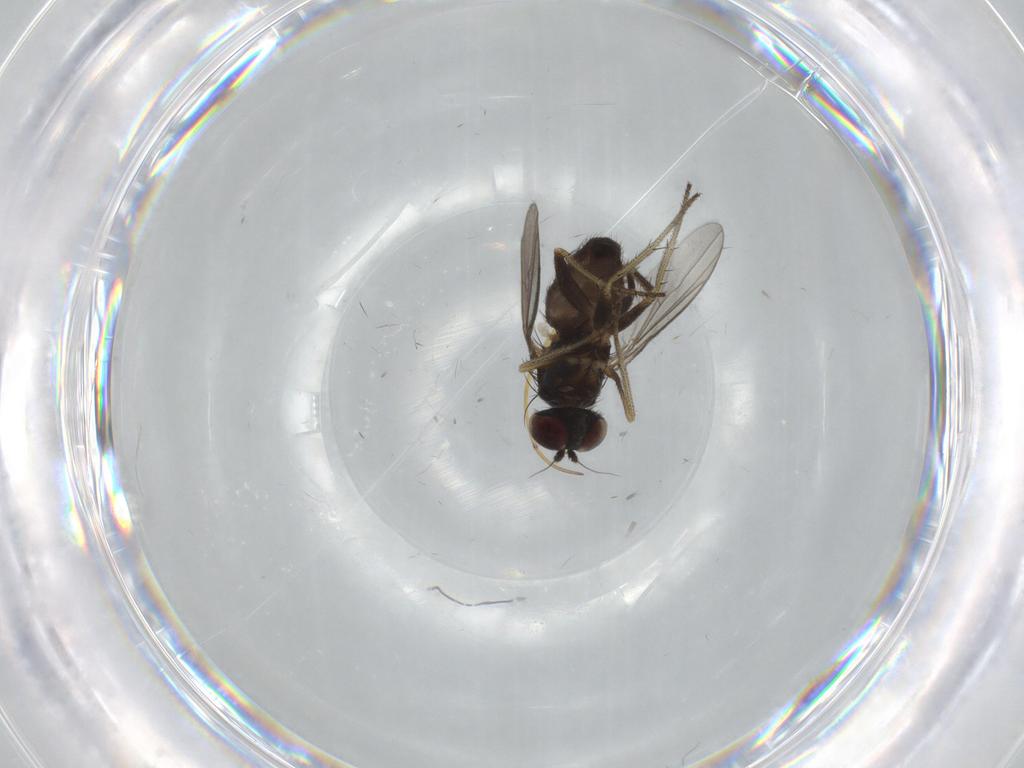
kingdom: Animalia
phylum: Arthropoda
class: Insecta
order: Diptera
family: Dolichopodidae
